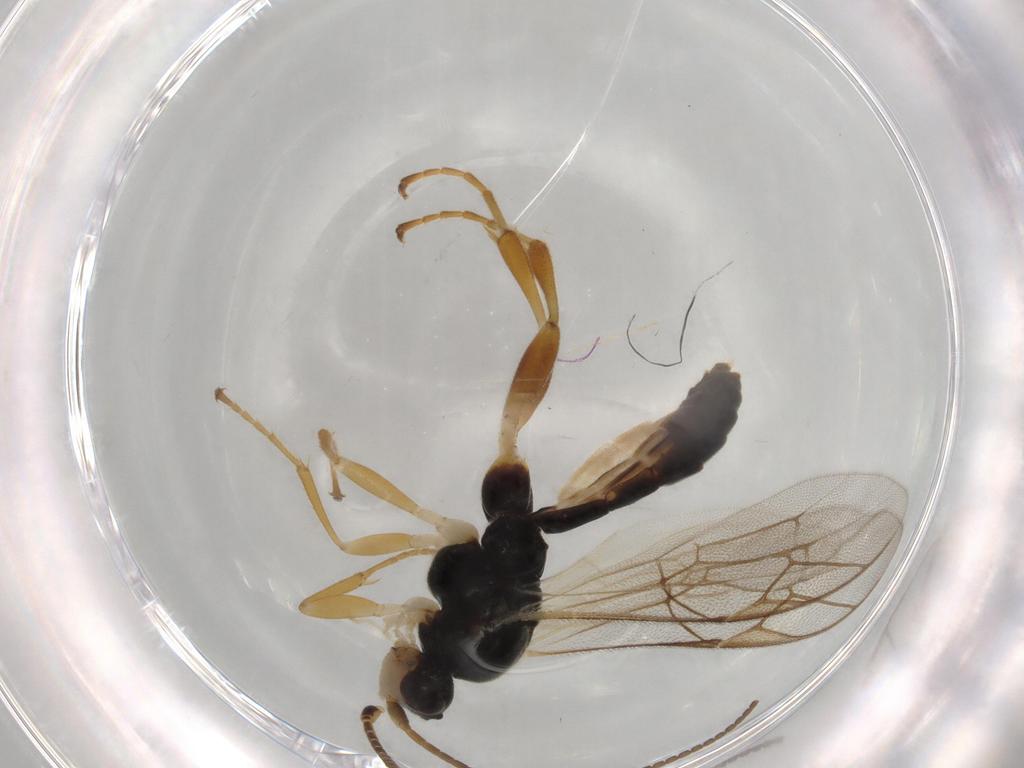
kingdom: Animalia
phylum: Arthropoda
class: Insecta
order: Hymenoptera
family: Ichneumonidae
